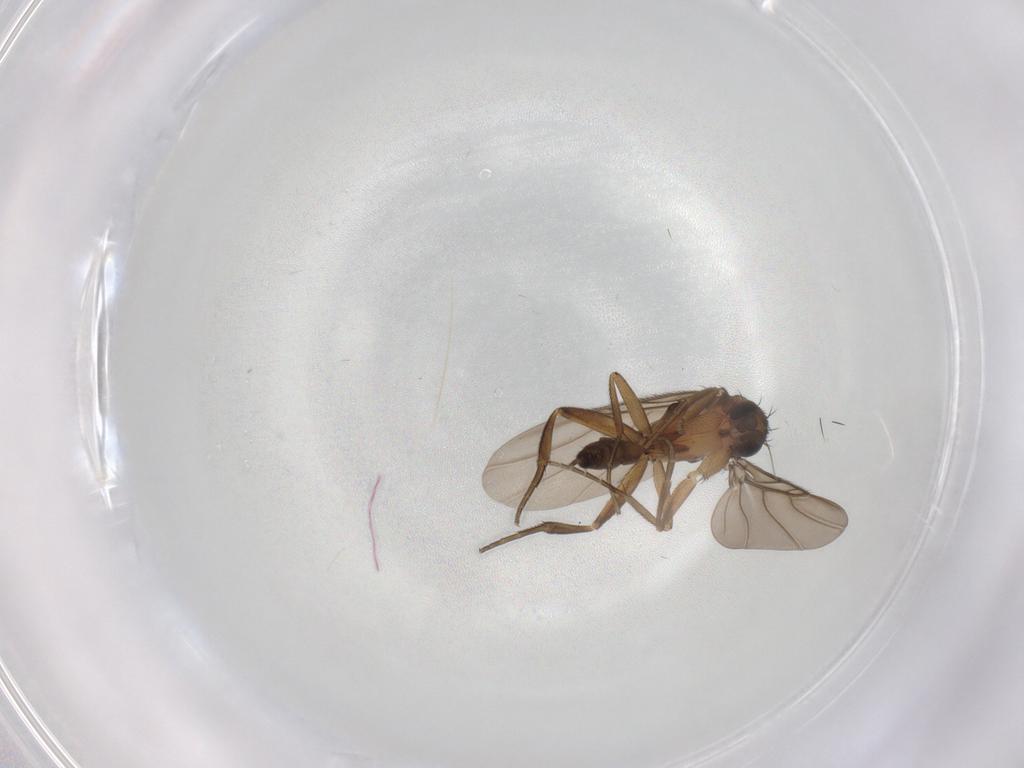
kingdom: Animalia
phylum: Arthropoda
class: Insecta
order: Diptera
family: Phoridae
